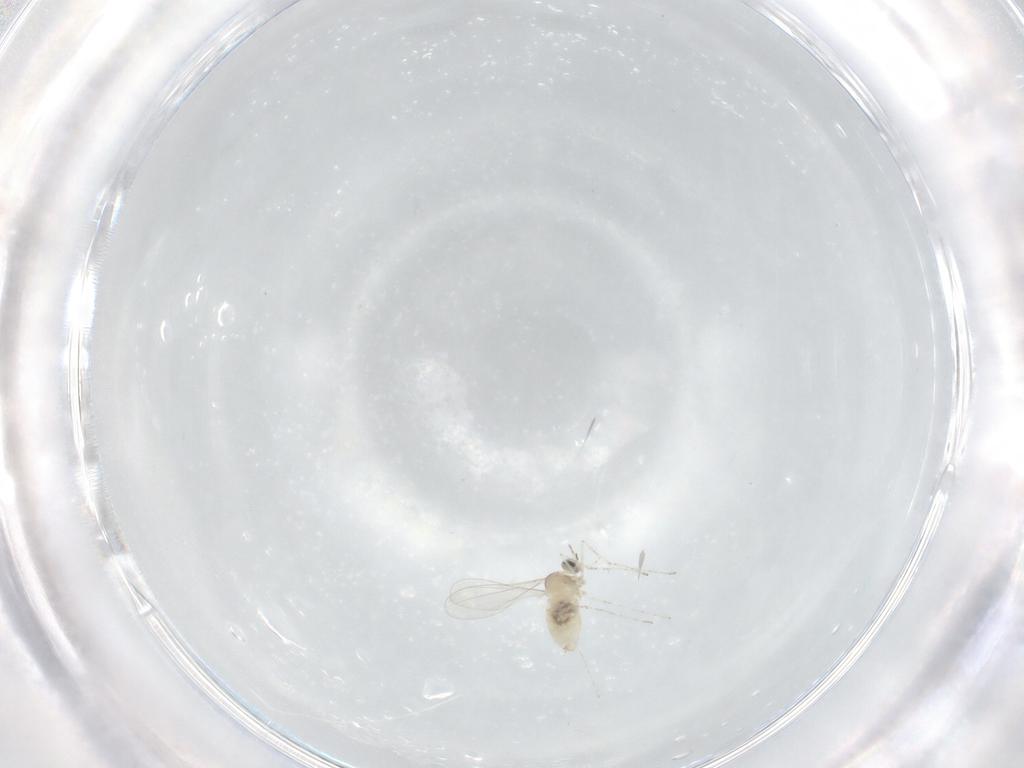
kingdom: Animalia
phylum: Arthropoda
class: Insecta
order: Diptera
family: Cecidomyiidae
